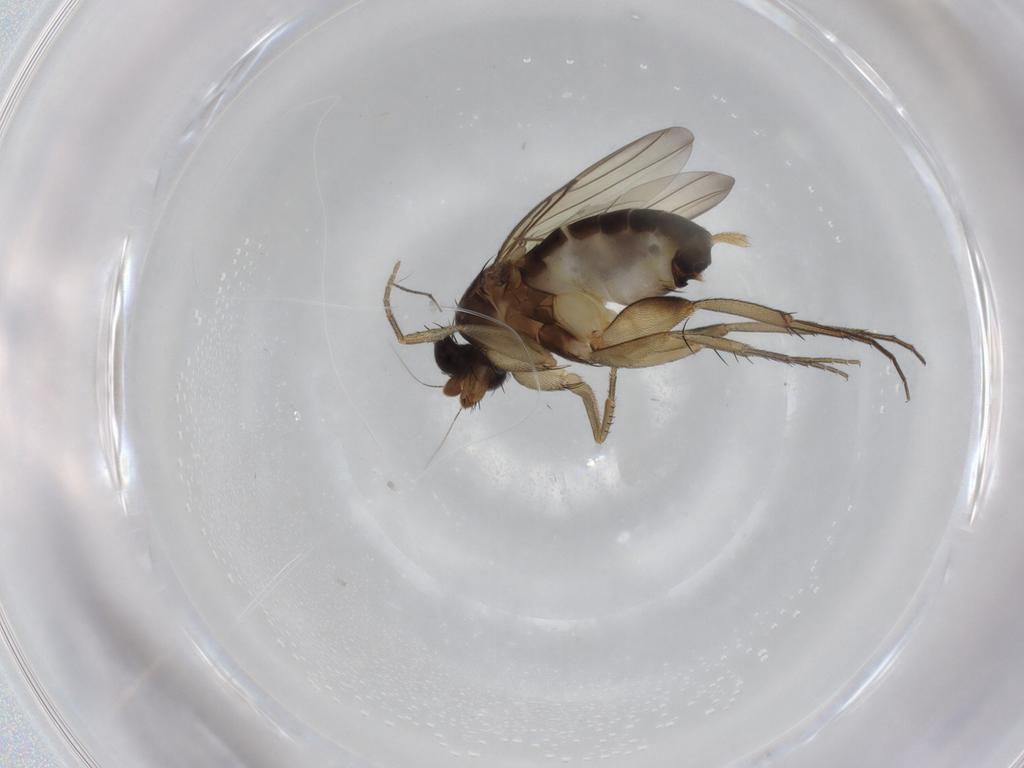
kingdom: Animalia
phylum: Arthropoda
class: Insecta
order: Diptera
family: Phoridae
